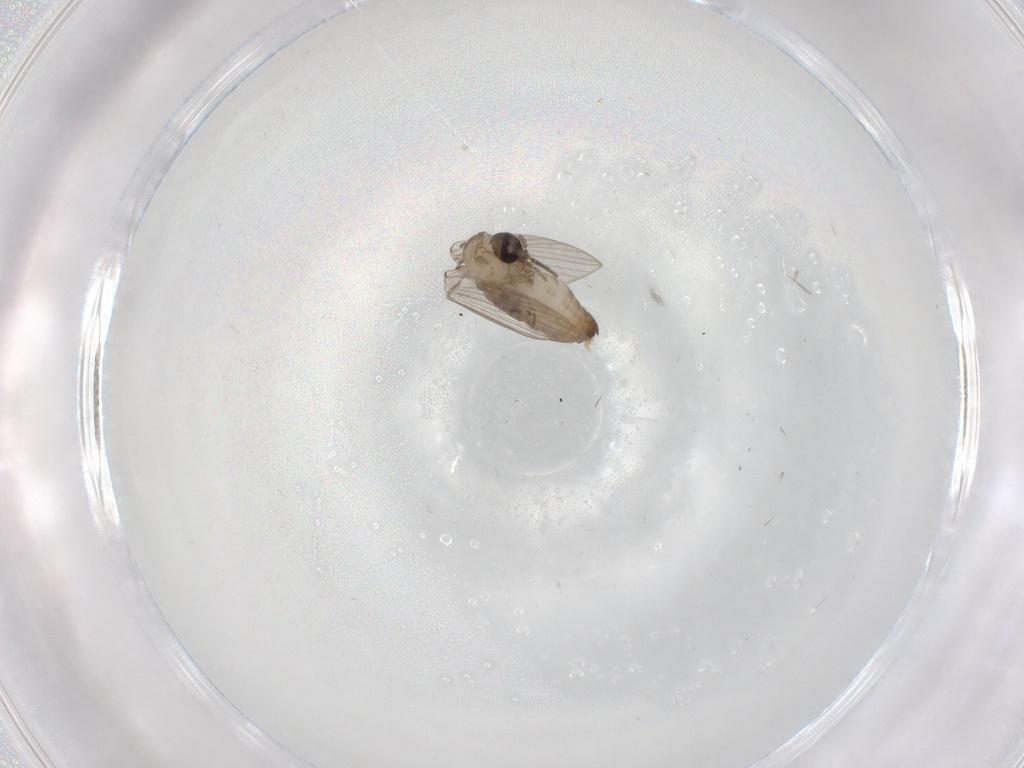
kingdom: Animalia
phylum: Arthropoda
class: Insecta
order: Diptera
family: Psychodidae
